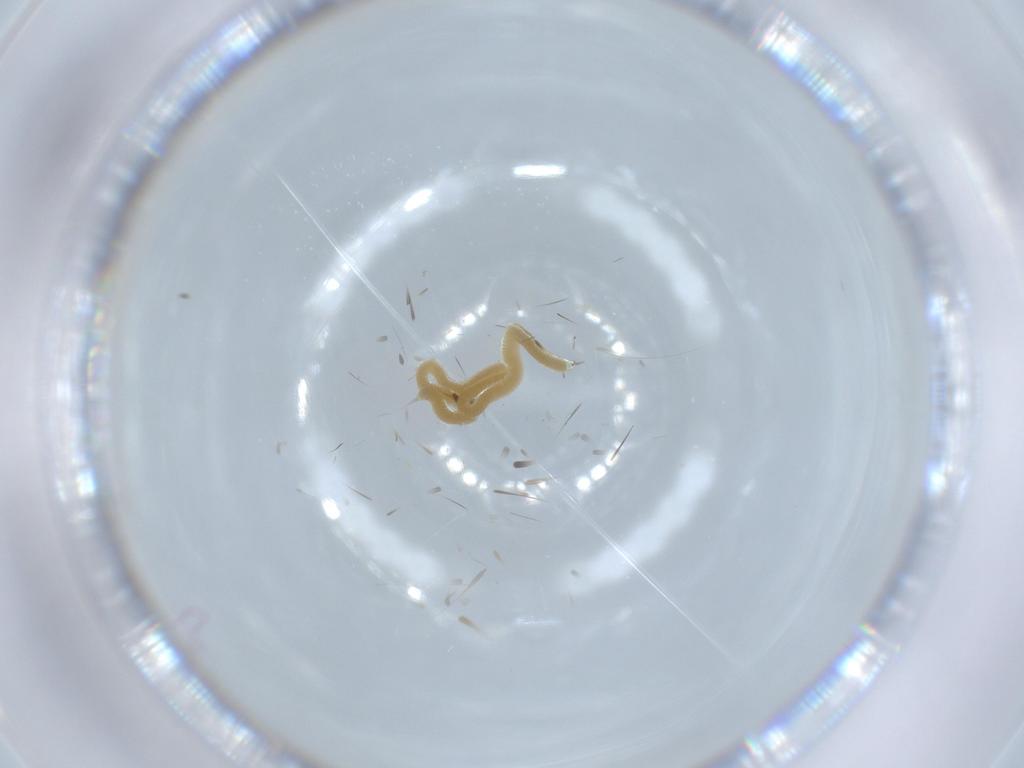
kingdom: Animalia
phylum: Arthropoda
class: Insecta
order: Diptera
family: Chironomidae
